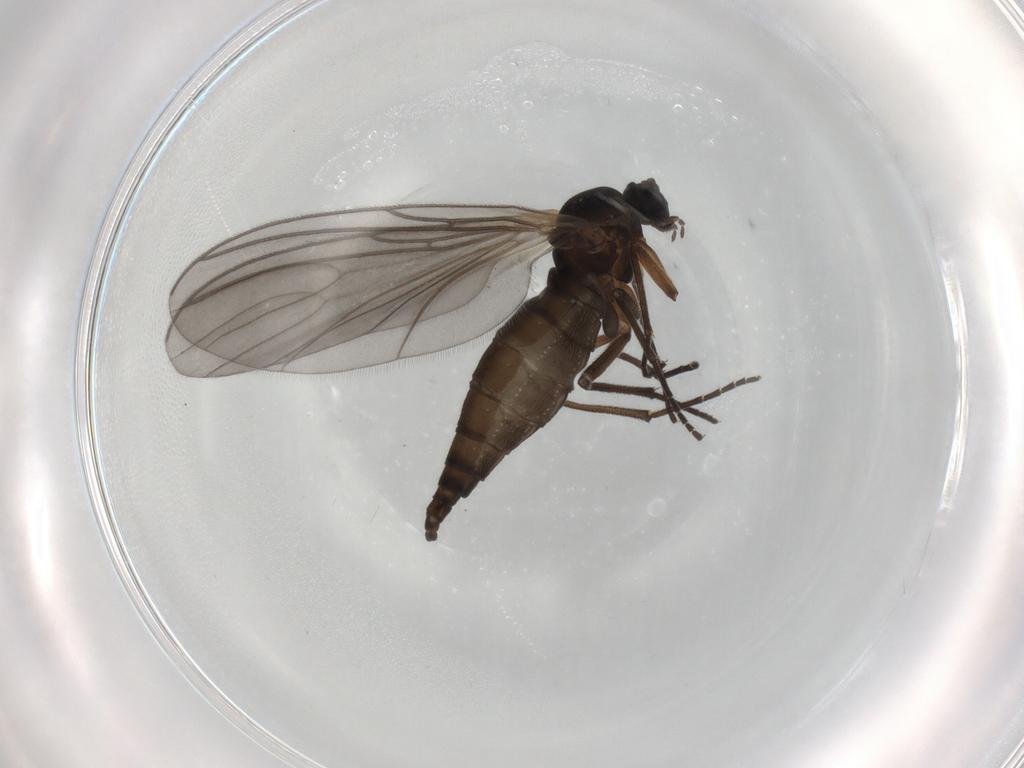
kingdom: Animalia
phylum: Arthropoda
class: Insecta
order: Diptera
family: Sciaridae
